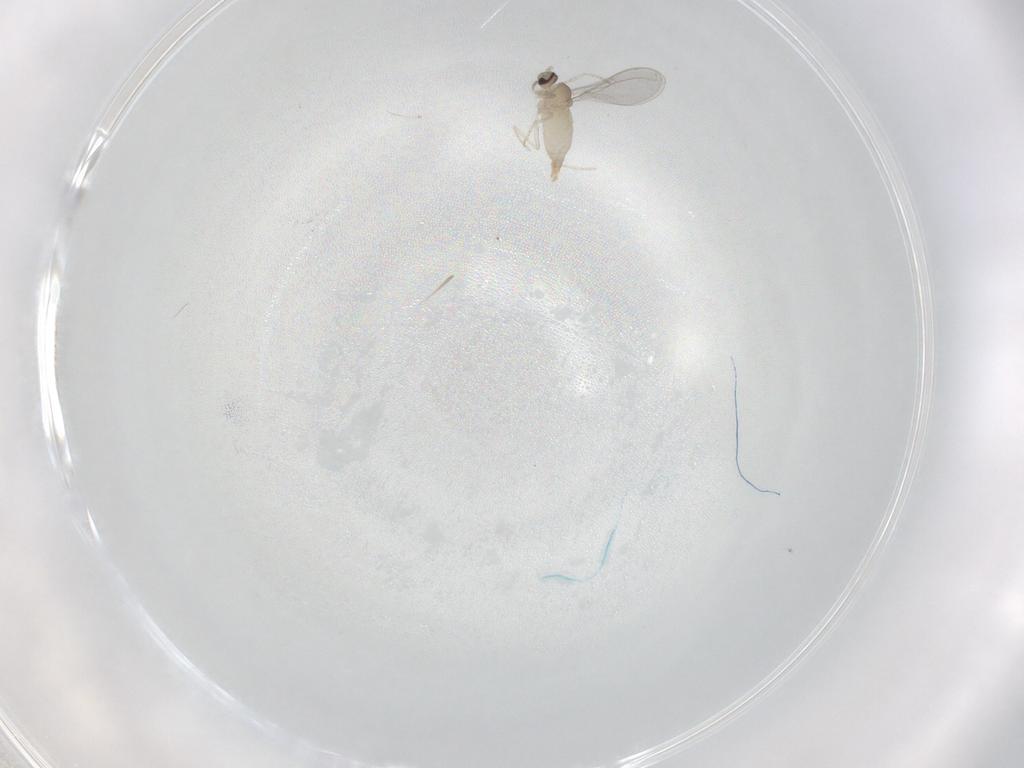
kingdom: Animalia
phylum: Arthropoda
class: Insecta
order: Diptera
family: Cecidomyiidae
